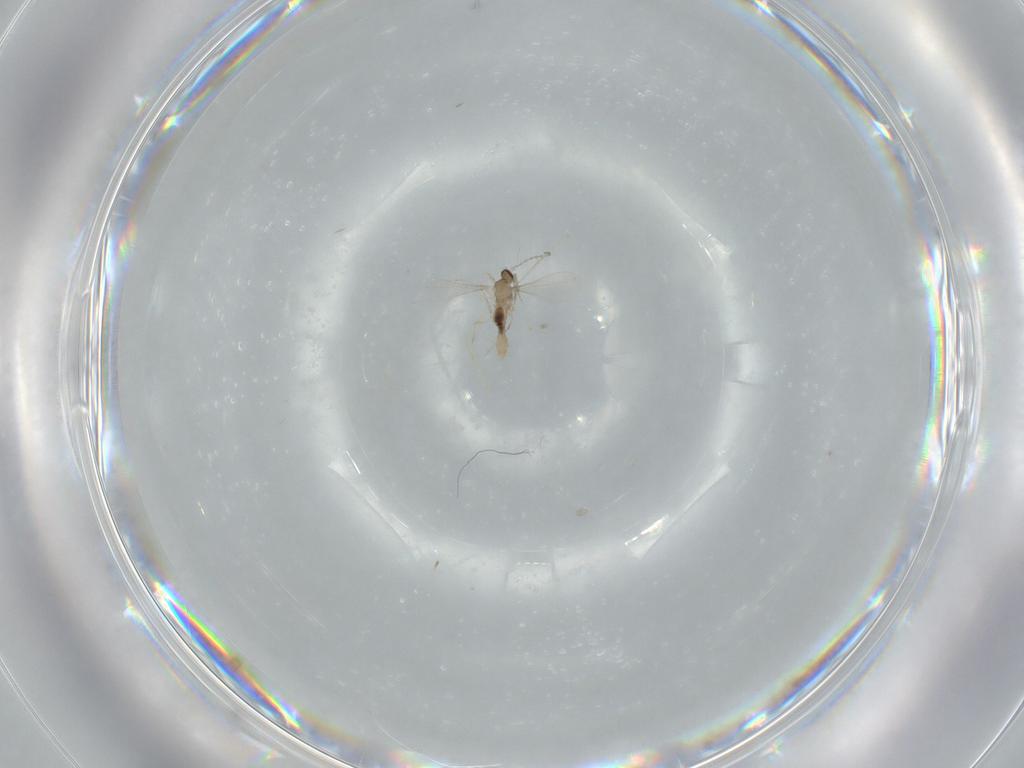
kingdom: Animalia
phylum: Arthropoda
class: Insecta
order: Diptera
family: Cecidomyiidae
